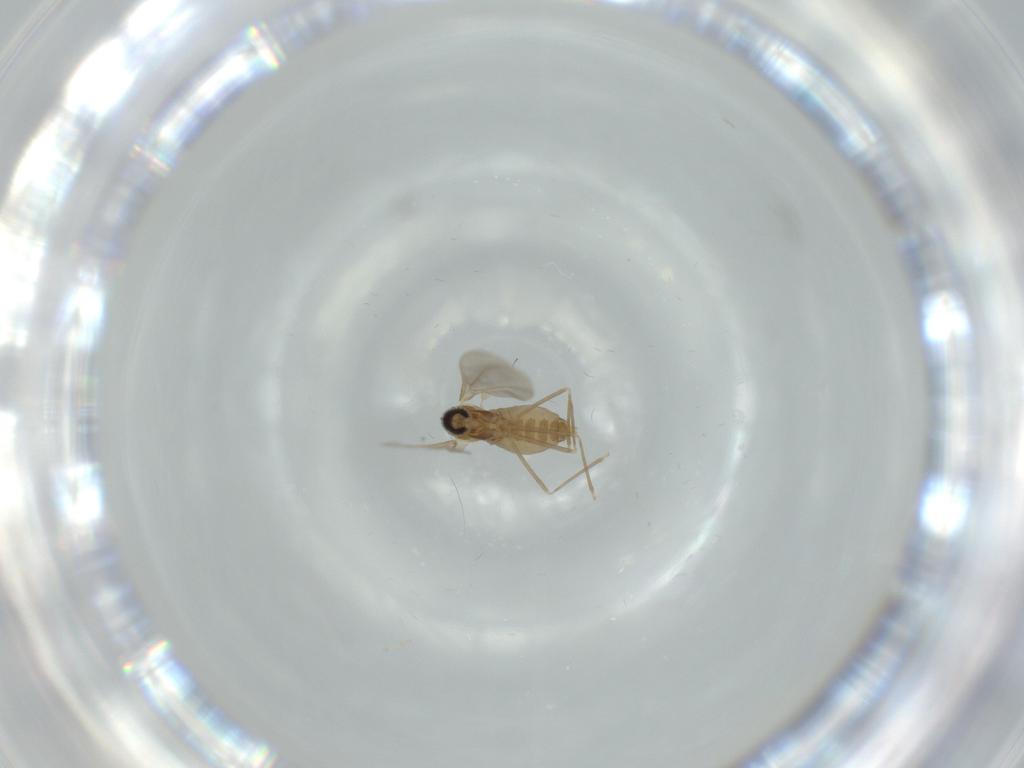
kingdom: Animalia
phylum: Arthropoda
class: Insecta
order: Diptera
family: Cecidomyiidae
